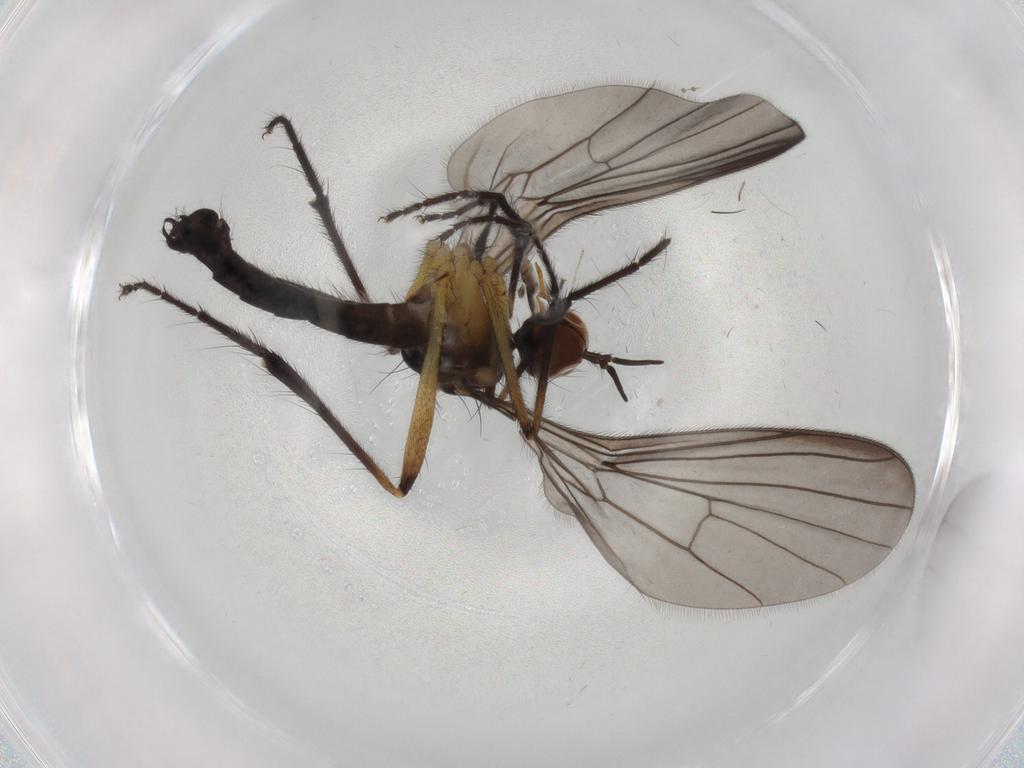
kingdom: Animalia
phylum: Arthropoda
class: Insecta
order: Diptera
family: Empididae
